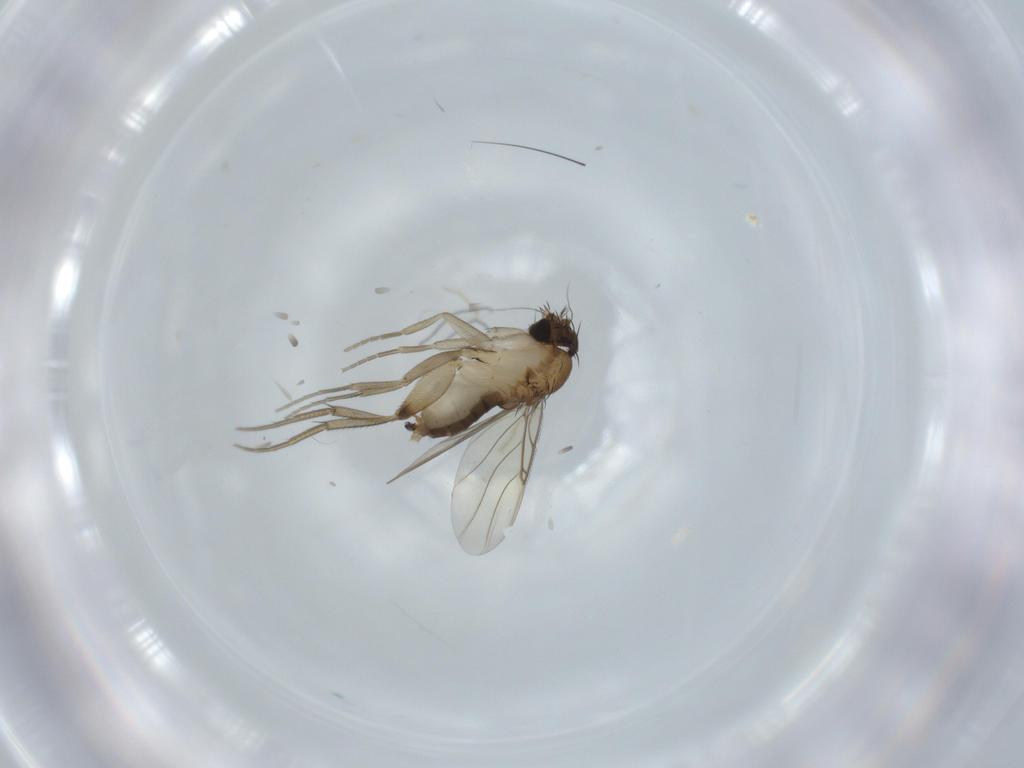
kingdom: Animalia
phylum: Arthropoda
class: Insecta
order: Diptera
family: Phoridae
